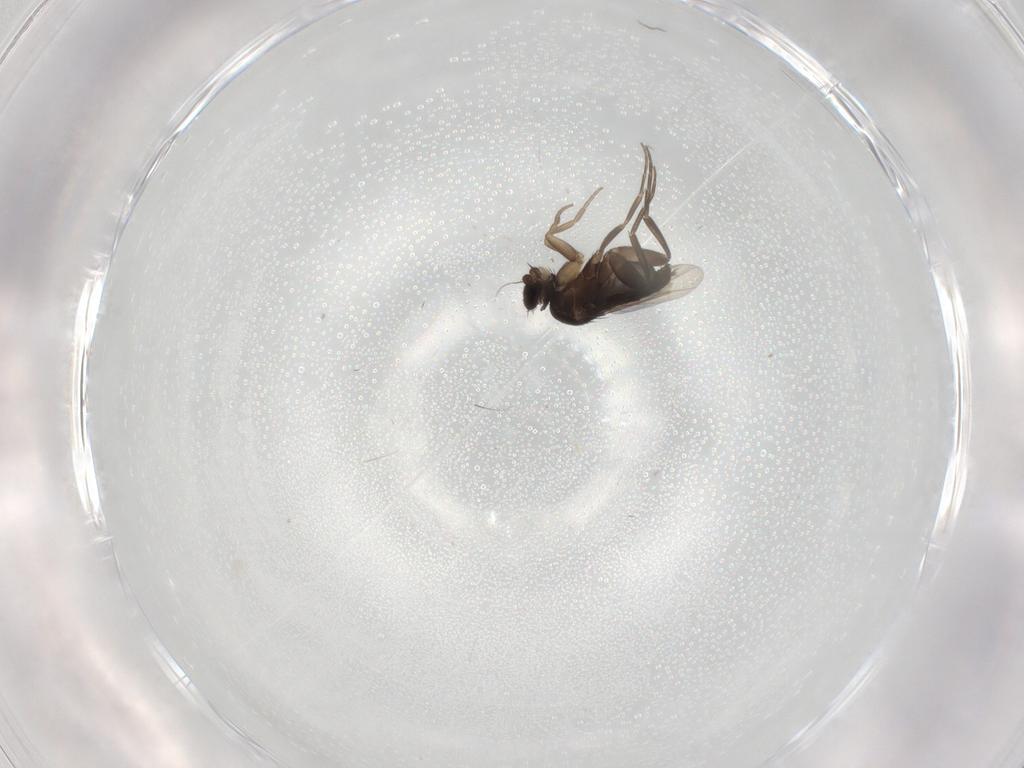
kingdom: Animalia
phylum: Arthropoda
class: Insecta
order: Diptera
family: Phoridae
